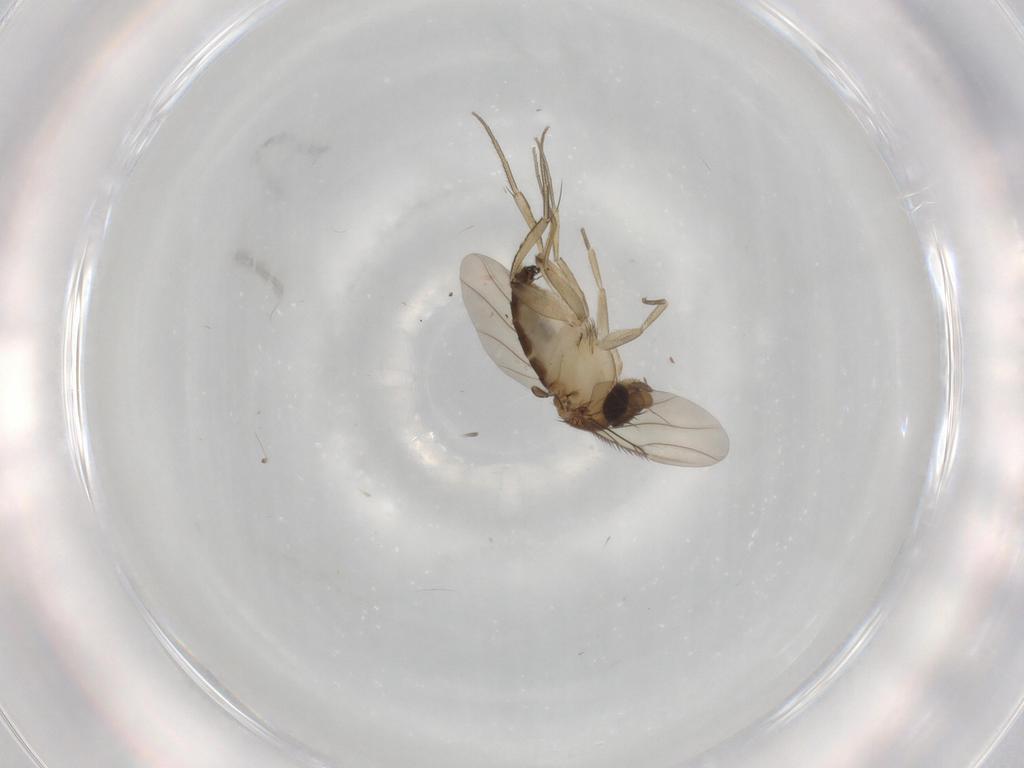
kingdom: Animalia
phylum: Arthropoda
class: Insecta
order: Diptera
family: Phoridae
